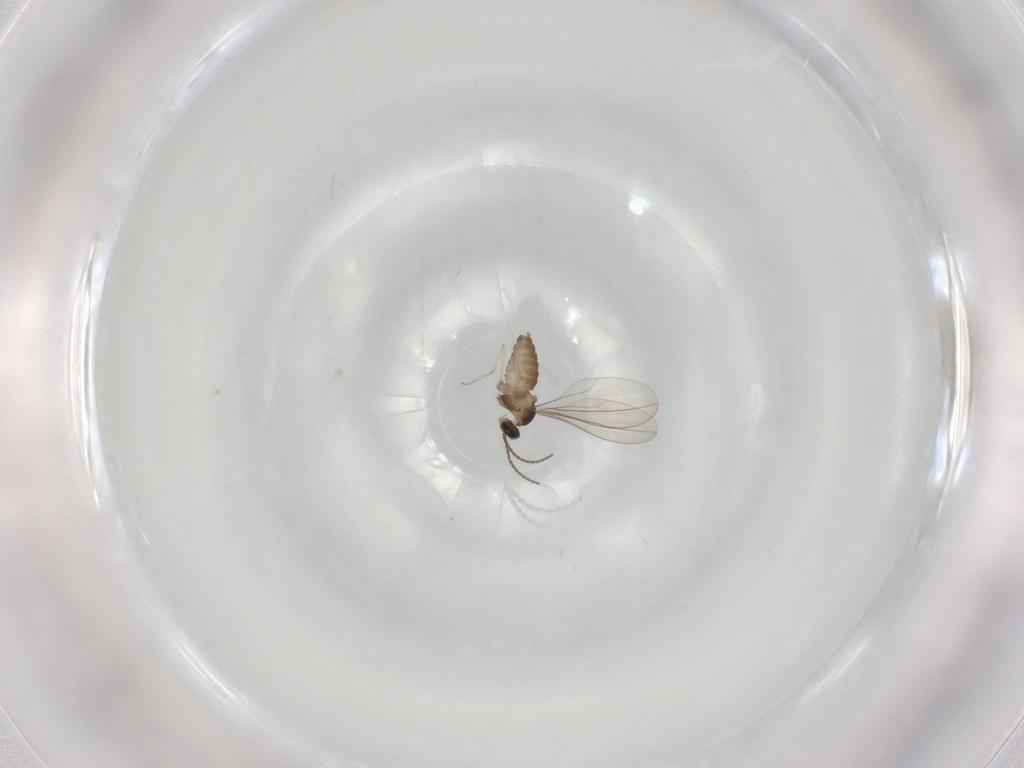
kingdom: Animalia
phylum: Arthropoda
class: Insecta
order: Diptera
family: Cecidomyiidae
